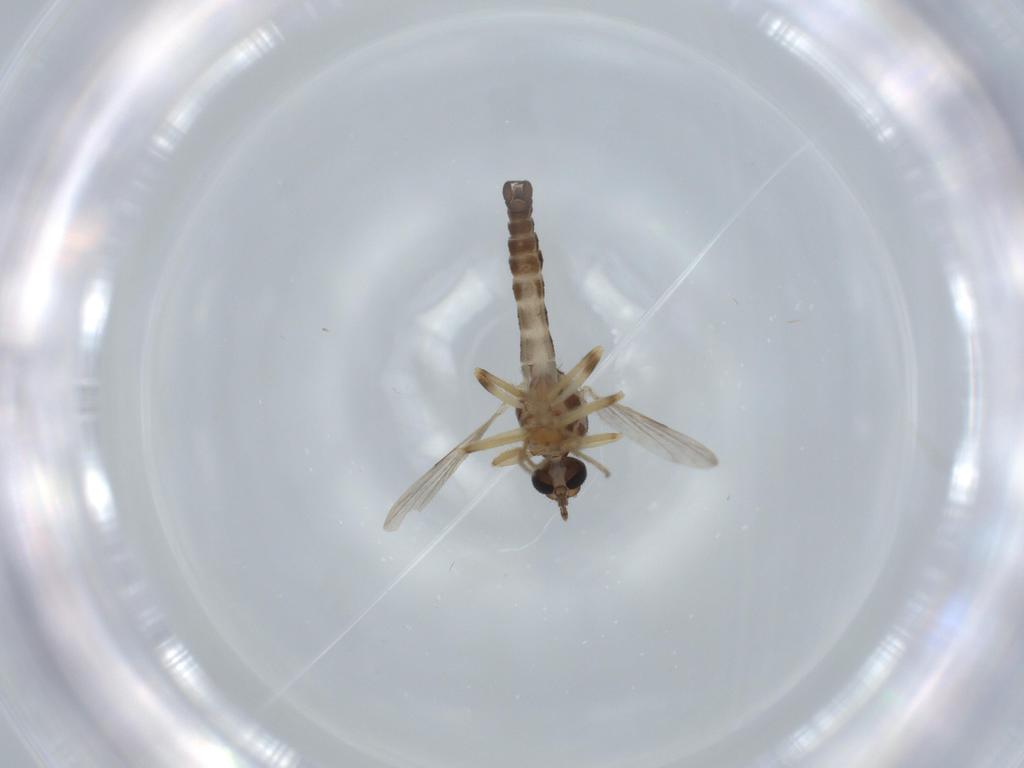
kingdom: Animalia
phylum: Arthropoda
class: Insecta
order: Diptera
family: Ceratopogonidae
